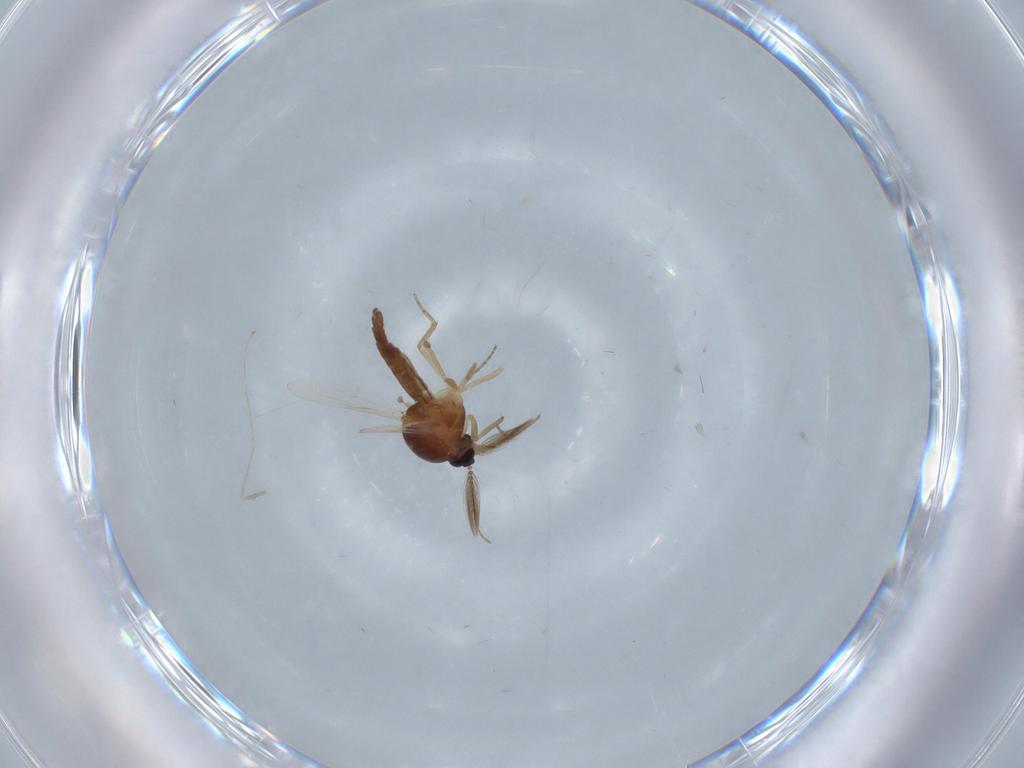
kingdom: Animalia
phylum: Arthropoda
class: Insecta
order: Diptera
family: Cecidomyiidae
